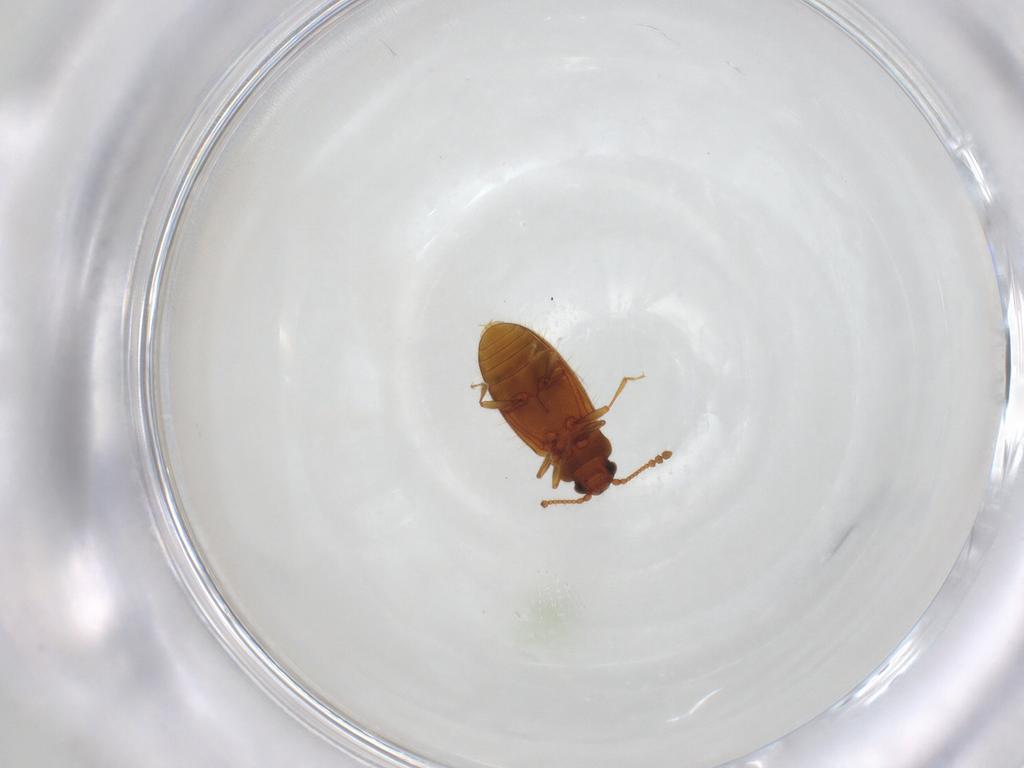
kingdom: Animalia
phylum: Arthropoda
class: Insecta
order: Coleoptera
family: Cryptophagidae
